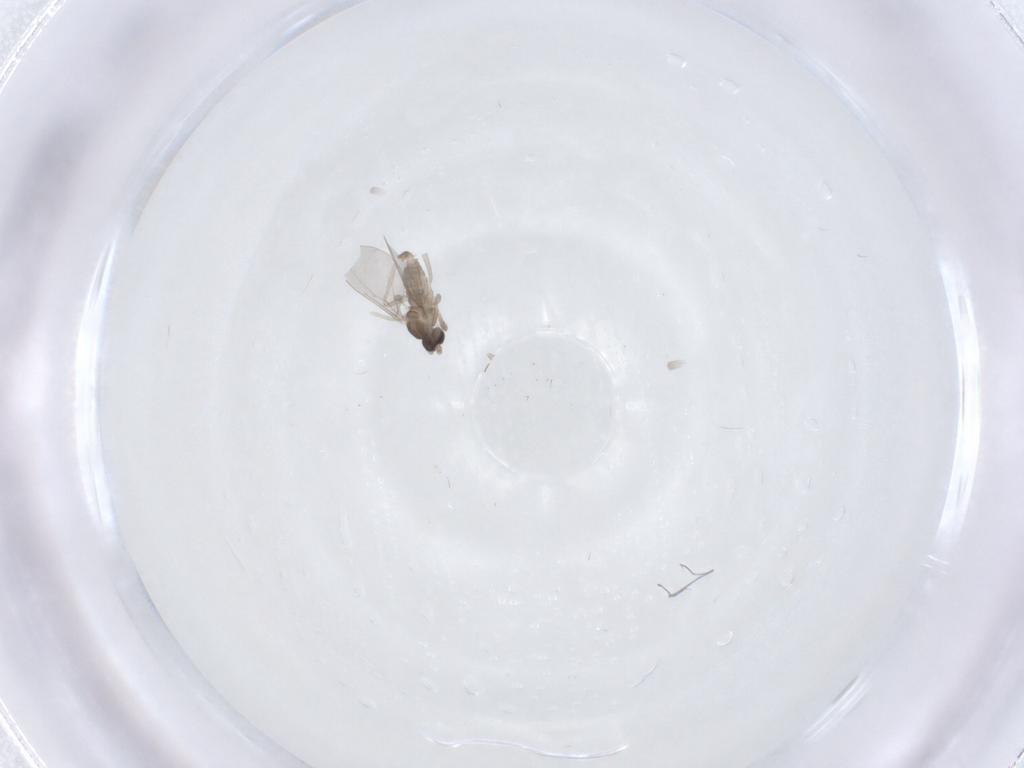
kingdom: Animalia
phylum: Arthropoda
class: Insecta
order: Diptera
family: Cecidomyiidae
